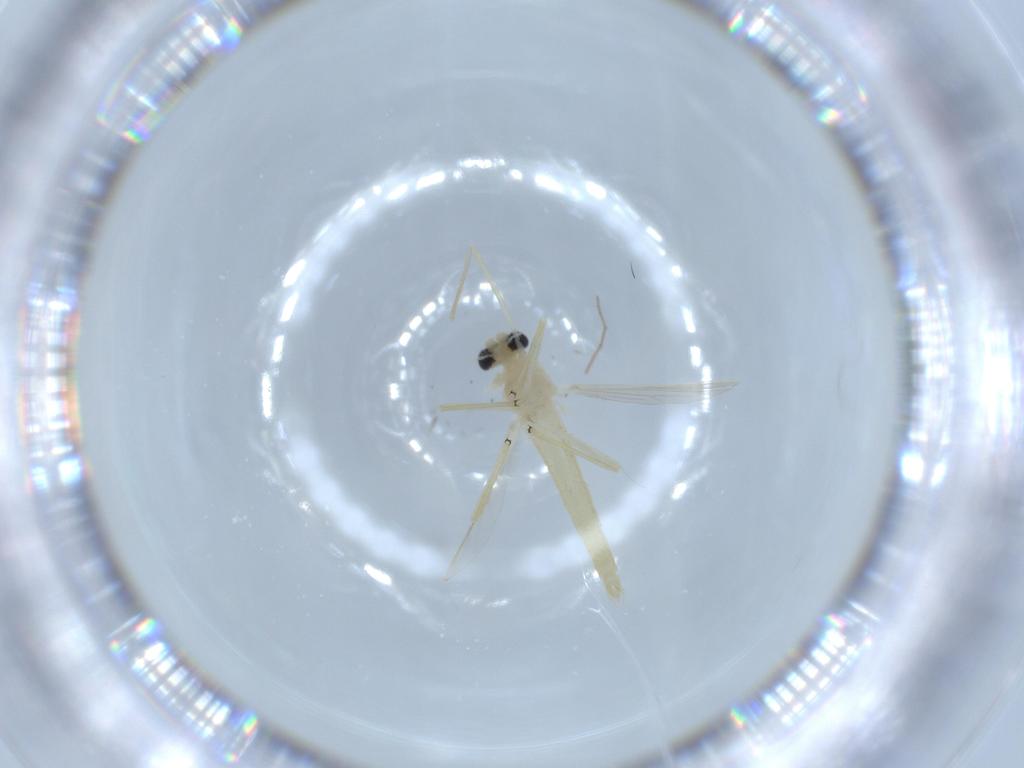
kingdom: Animalia
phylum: Arthropoda
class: Insecta
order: Diptera
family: Chironomidae
